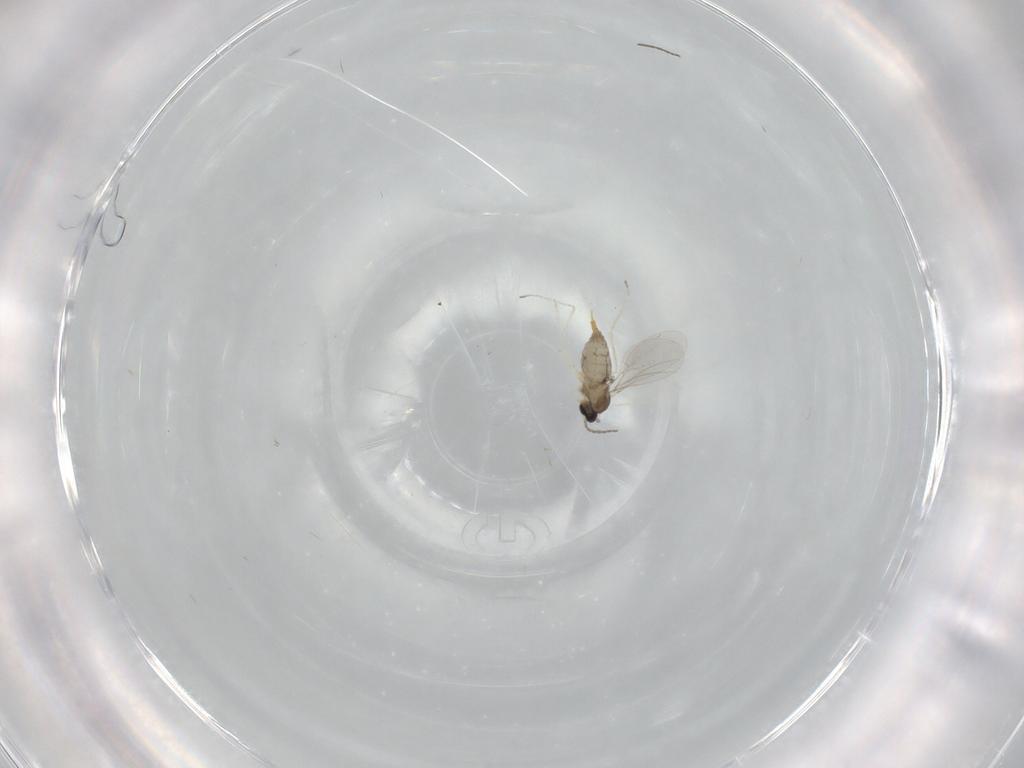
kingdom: Animalia
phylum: Arthropoda
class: Insecta
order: Diptera
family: Cecidomyiidae
